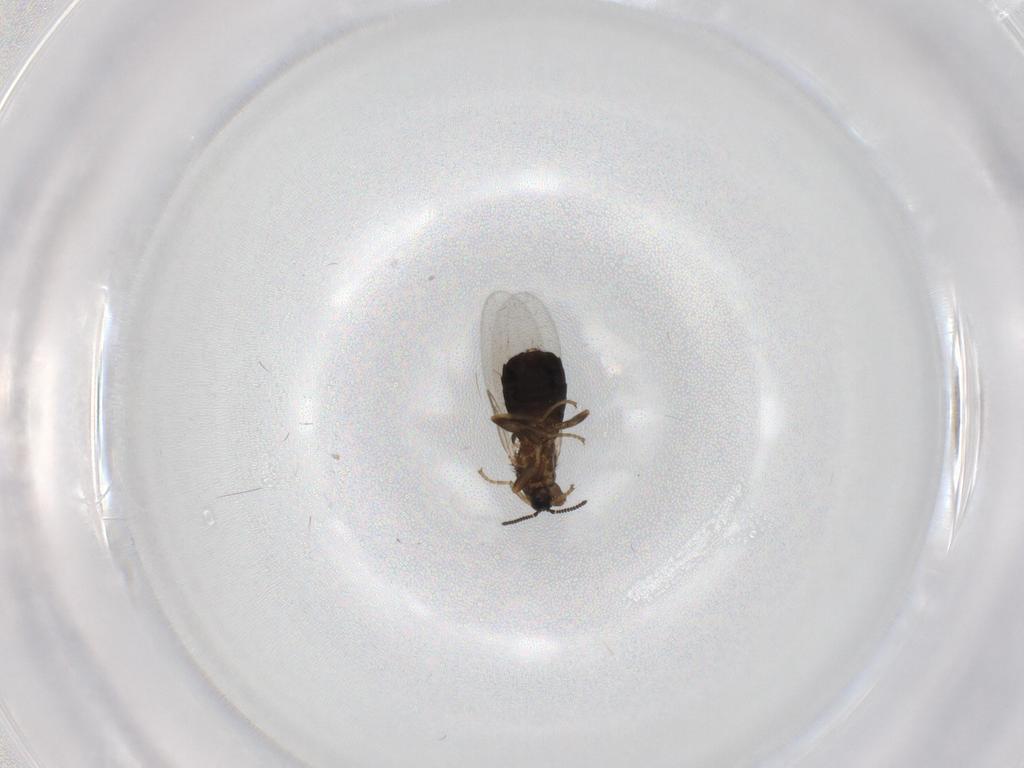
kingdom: Animalia
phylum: Arthropoda
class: Insecta
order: Diptera
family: Scatopsidae
